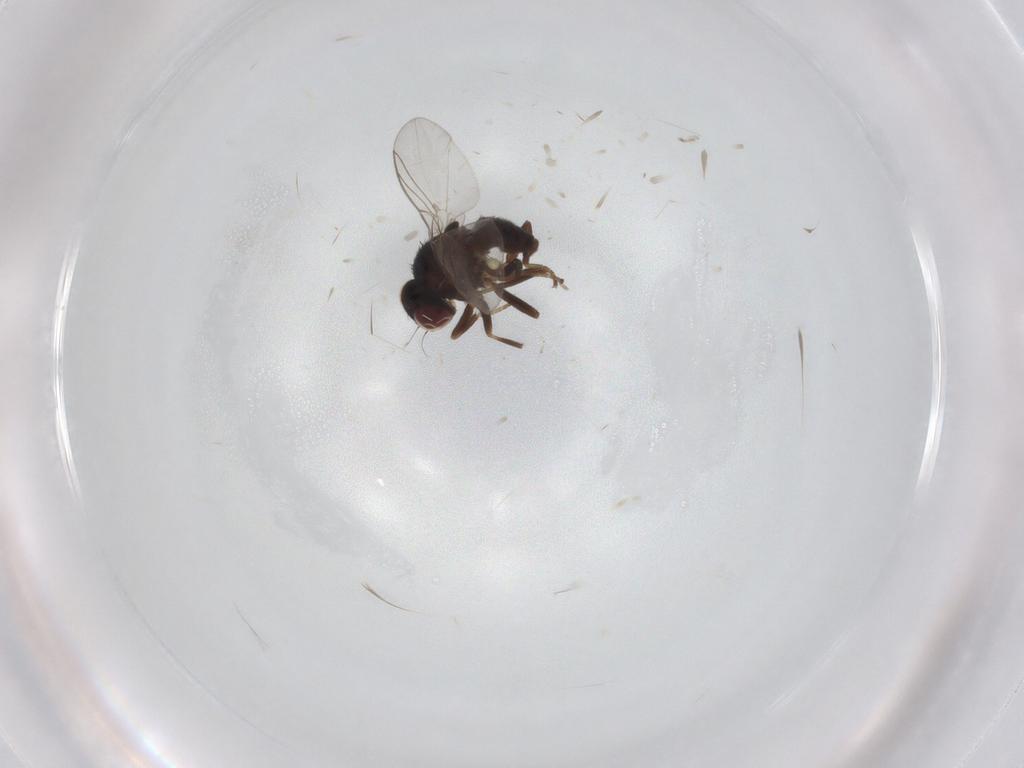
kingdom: Animalia
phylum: Arthropoda
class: Insecta
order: Diptera
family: Agromyzidae
